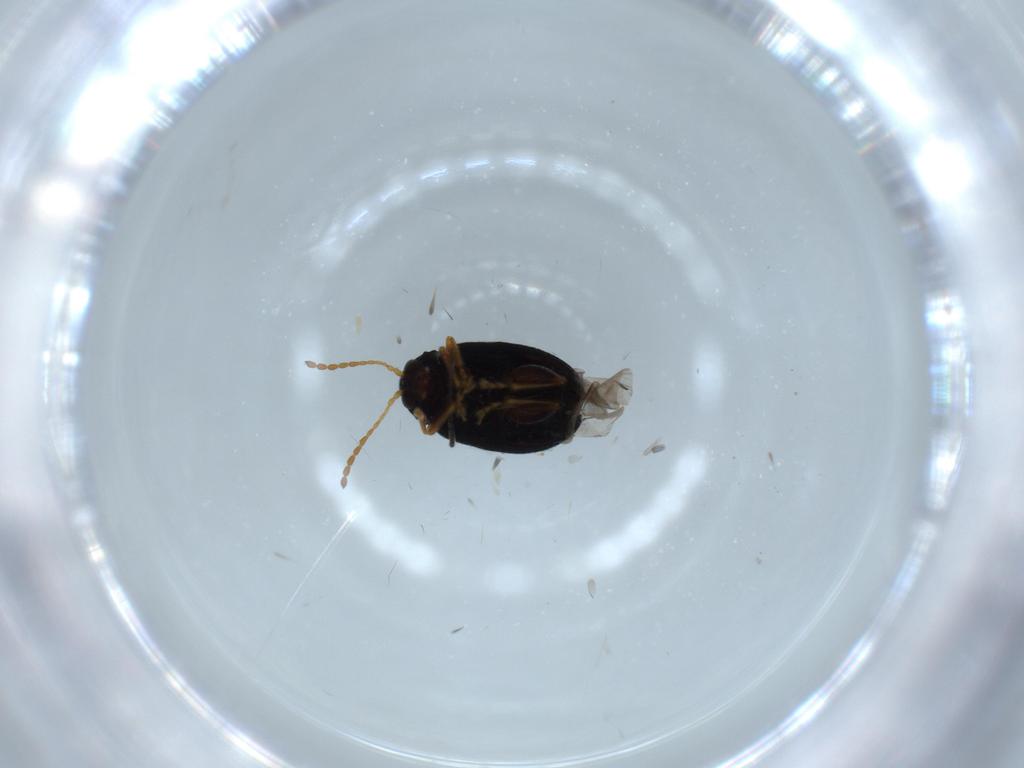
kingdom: Animalia
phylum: Arthropoda
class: Insecta
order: Coleoptera
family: Chrysomelidae
